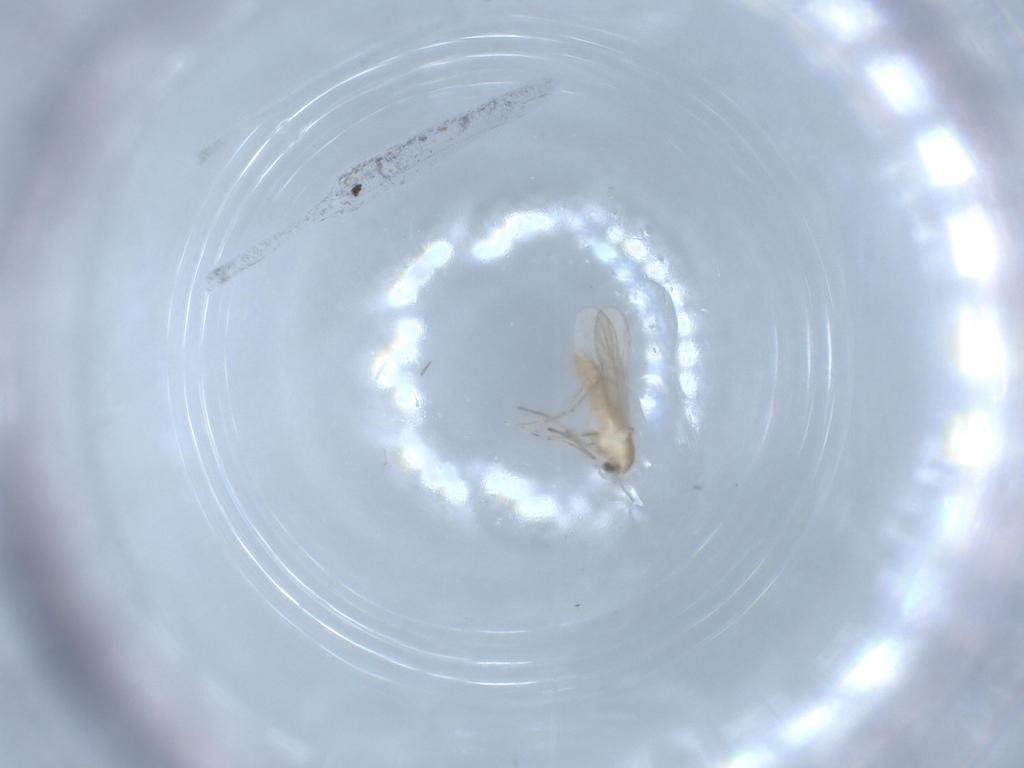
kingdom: Animalia
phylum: Arthropoda
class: Insecta
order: Diptera
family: Chironomidae
